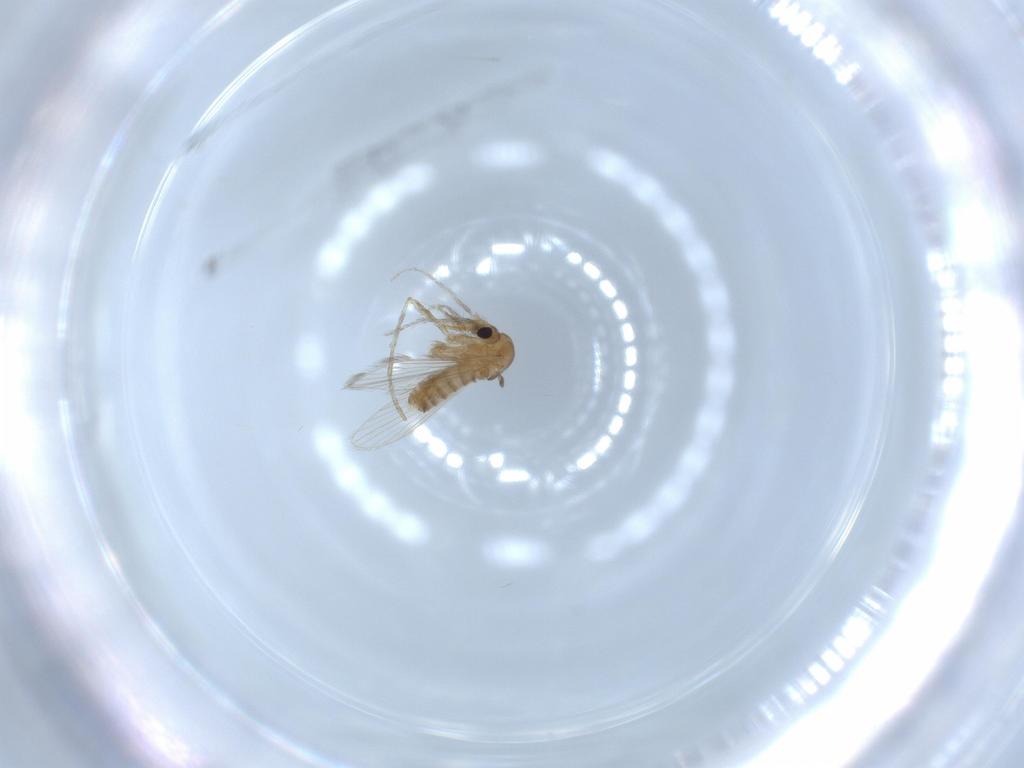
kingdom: Animalia
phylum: Arthropoda
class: Insecta
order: Diptera
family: Psychodidae
